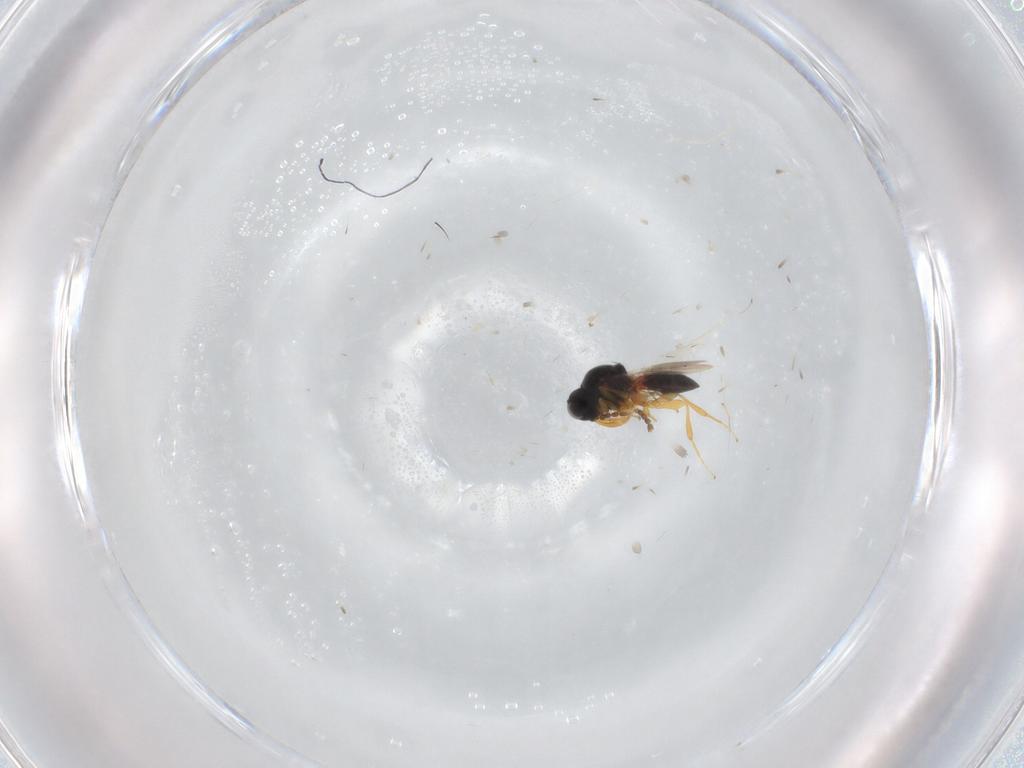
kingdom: Animalia
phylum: Arthropoda
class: Insecta
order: Hymenoptera
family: Platygastridae
